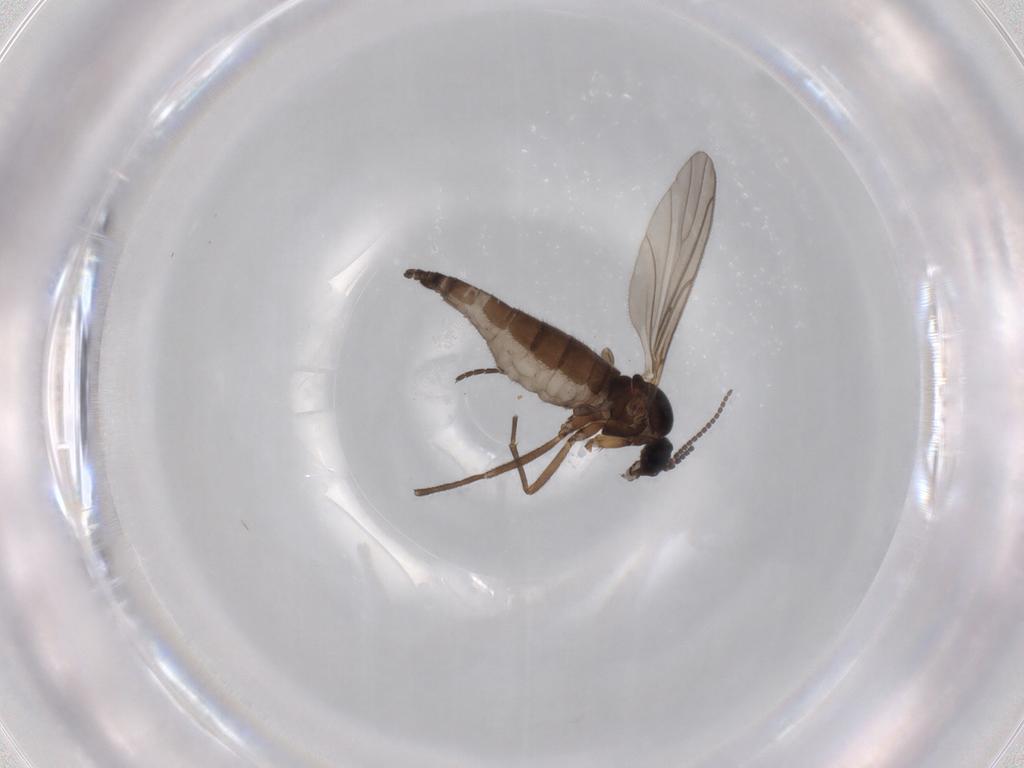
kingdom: Animalia
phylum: Arthropoda
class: Insecta
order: Diptera
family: Sciaridae
